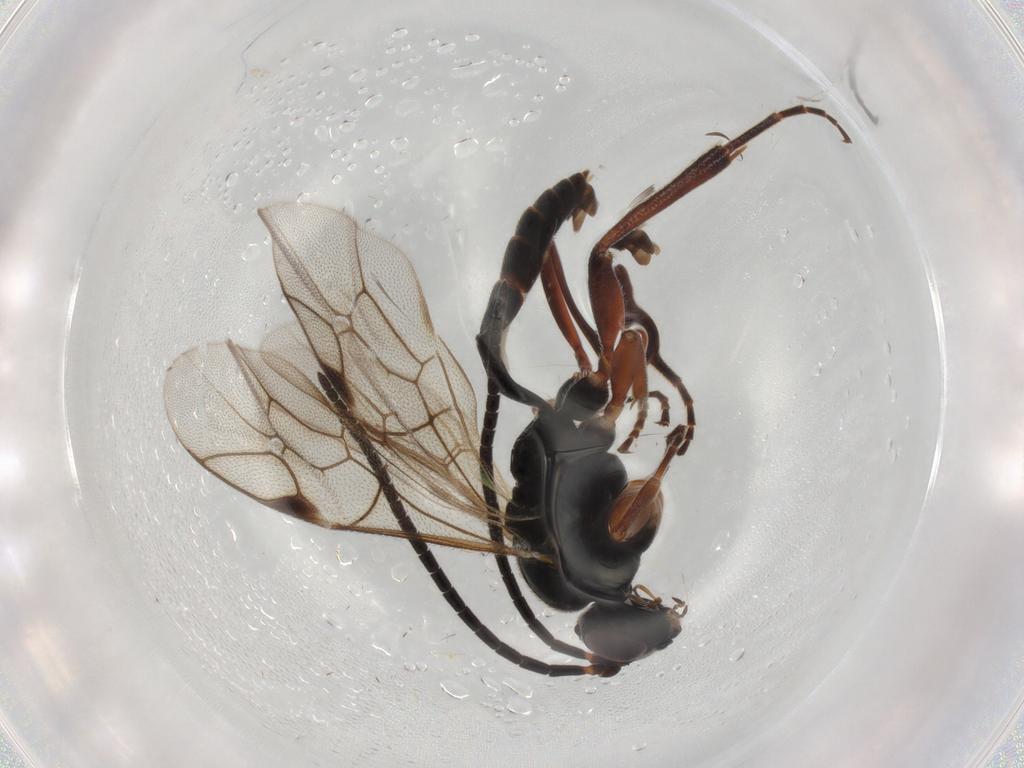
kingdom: Animalia
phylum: Arthropoda
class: Insecta
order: Hymenoptera
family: Ichneumonidae
